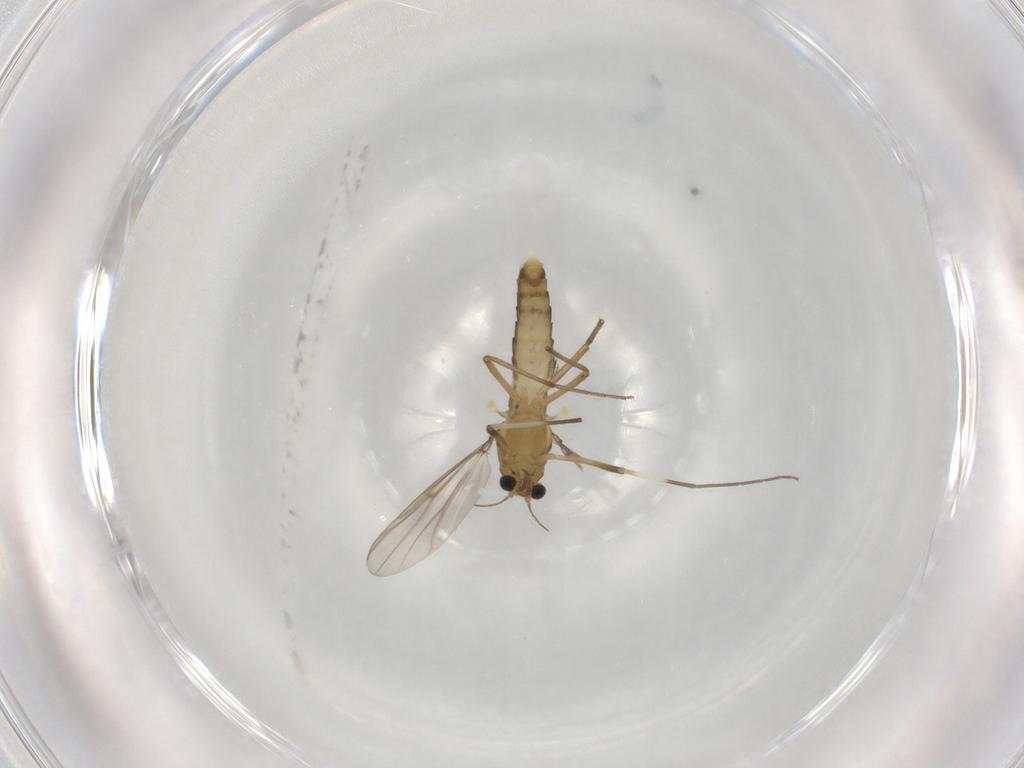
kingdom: Animalia
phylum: Arthropoda
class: Insecta
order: Diptera
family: Chironomidae
